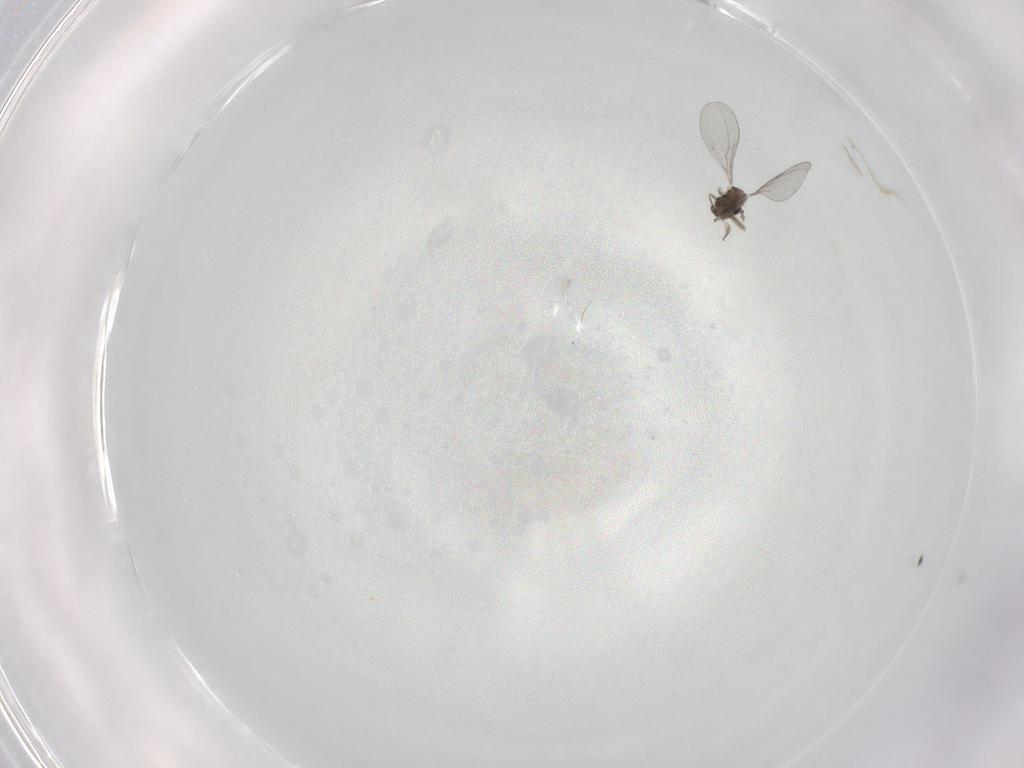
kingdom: Animalia
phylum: Arthropoda
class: Insecta
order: Diptera
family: Cecidomyiidae
